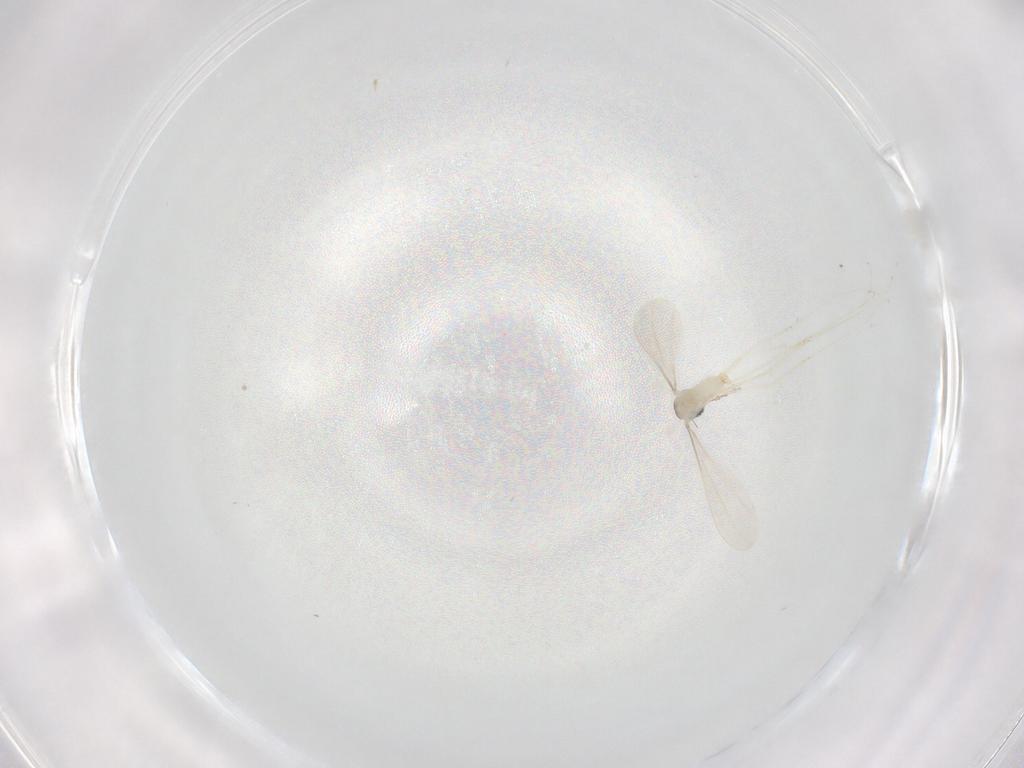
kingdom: Animalia
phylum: Arthropoda
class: Insecta
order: Diptera
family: Cecidomyiidae
